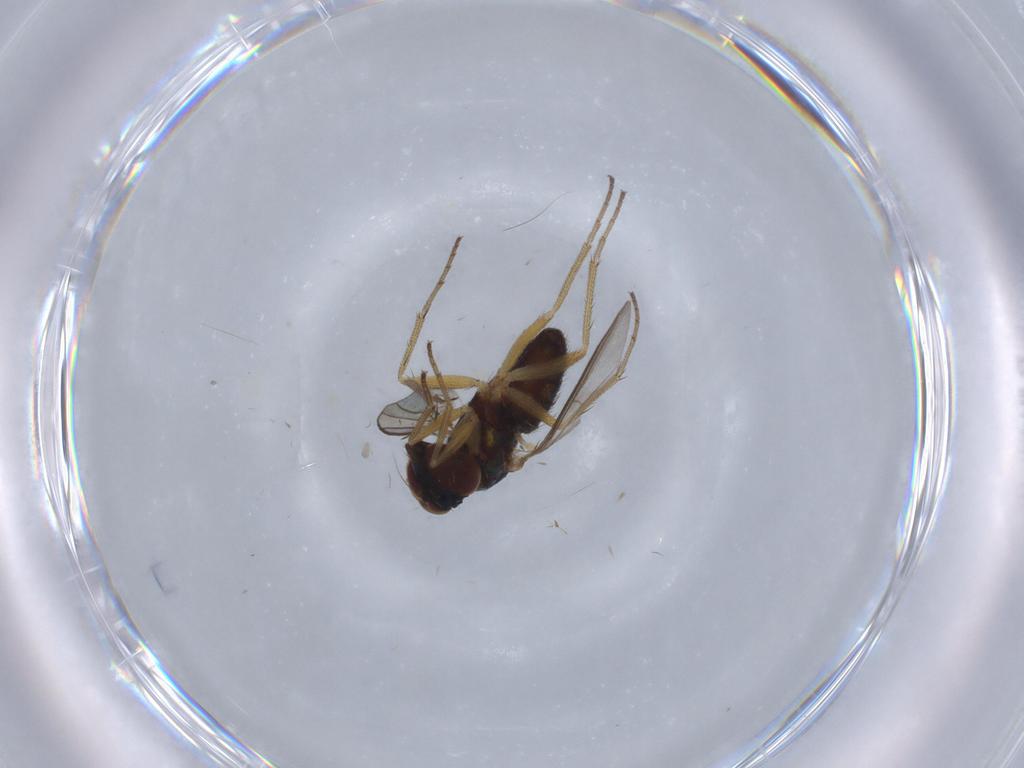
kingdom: Animalia
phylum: Arthropoda
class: Insecta
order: Diptera
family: Dolichopodidae
